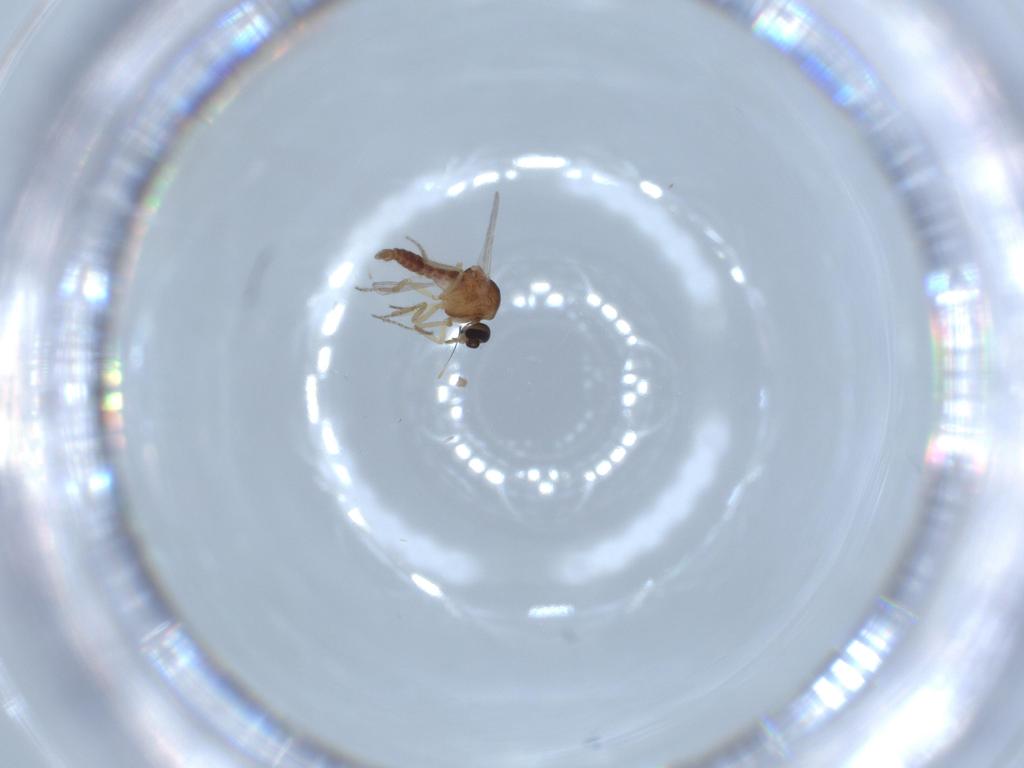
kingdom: Animalia
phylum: Arthropoda
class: Insecta
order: Diptera
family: Ceratopogonidae
